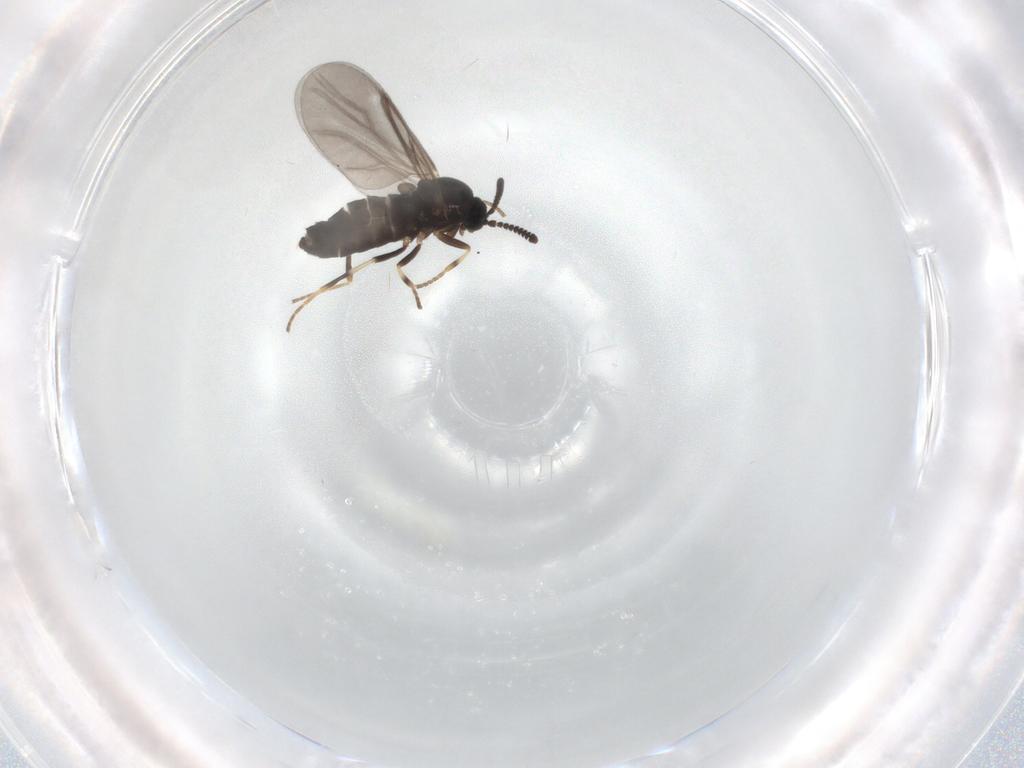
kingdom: Animalia
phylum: Arthropoda
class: Insecta
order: Diptera
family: Scatopsidae
